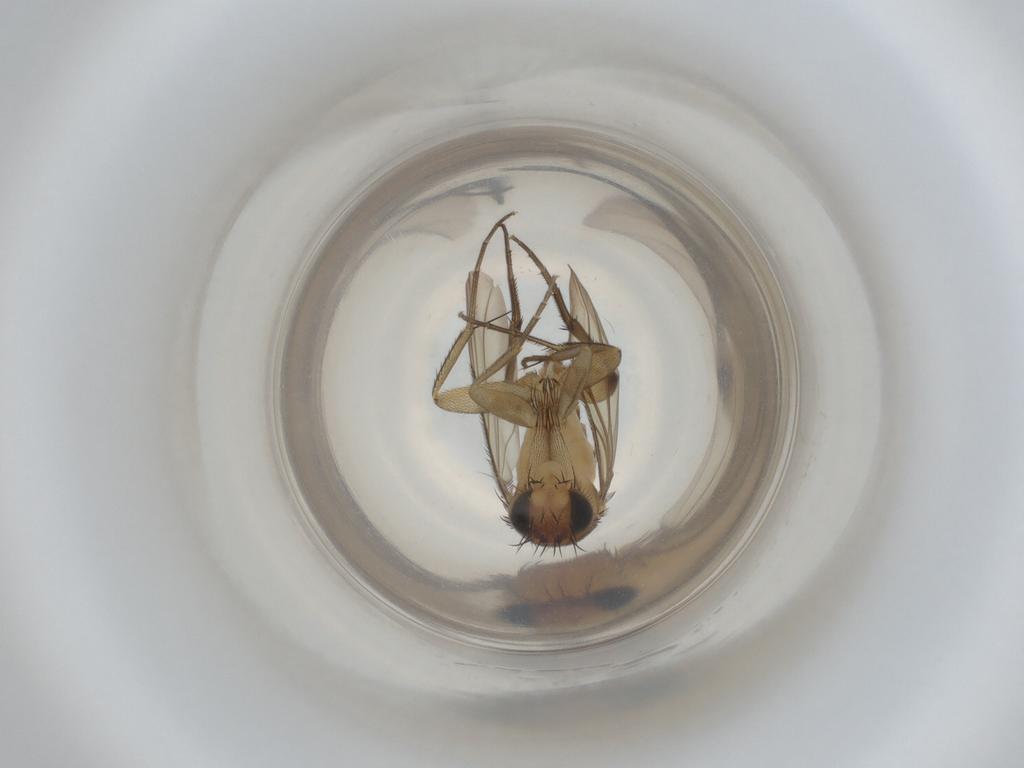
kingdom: Animalia
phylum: Arthropoda
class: Insecta
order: Diptera
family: Phoridae
